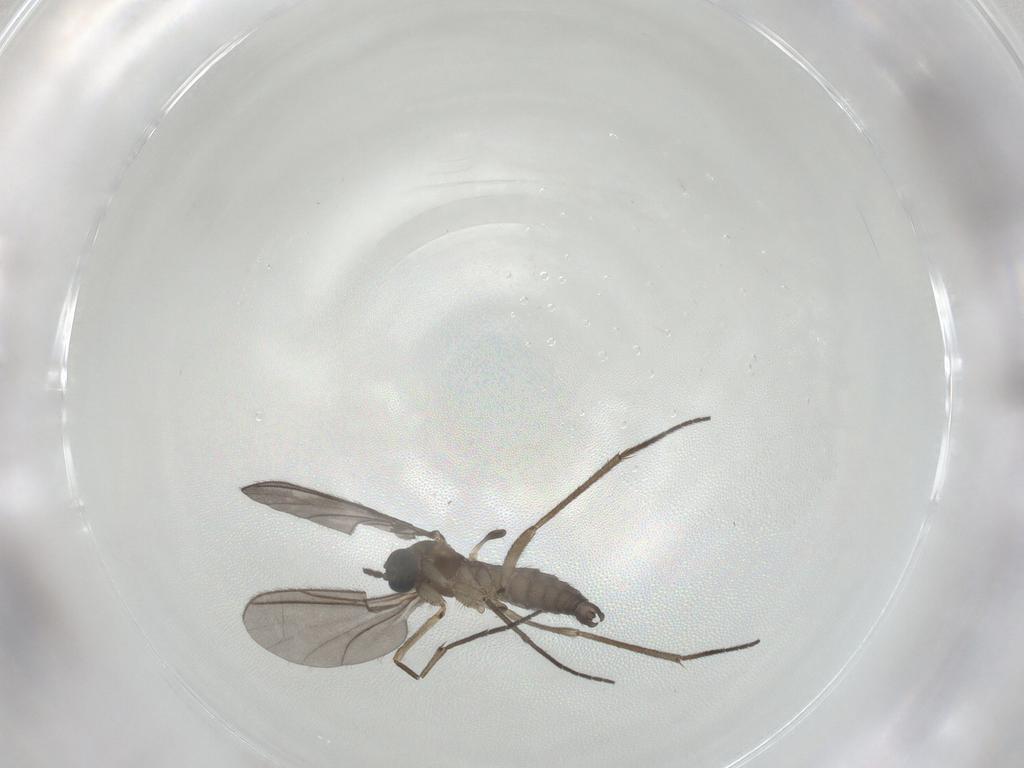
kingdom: Animalia
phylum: Arthropoda
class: Insecta
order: Diptera
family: Sciaridae
